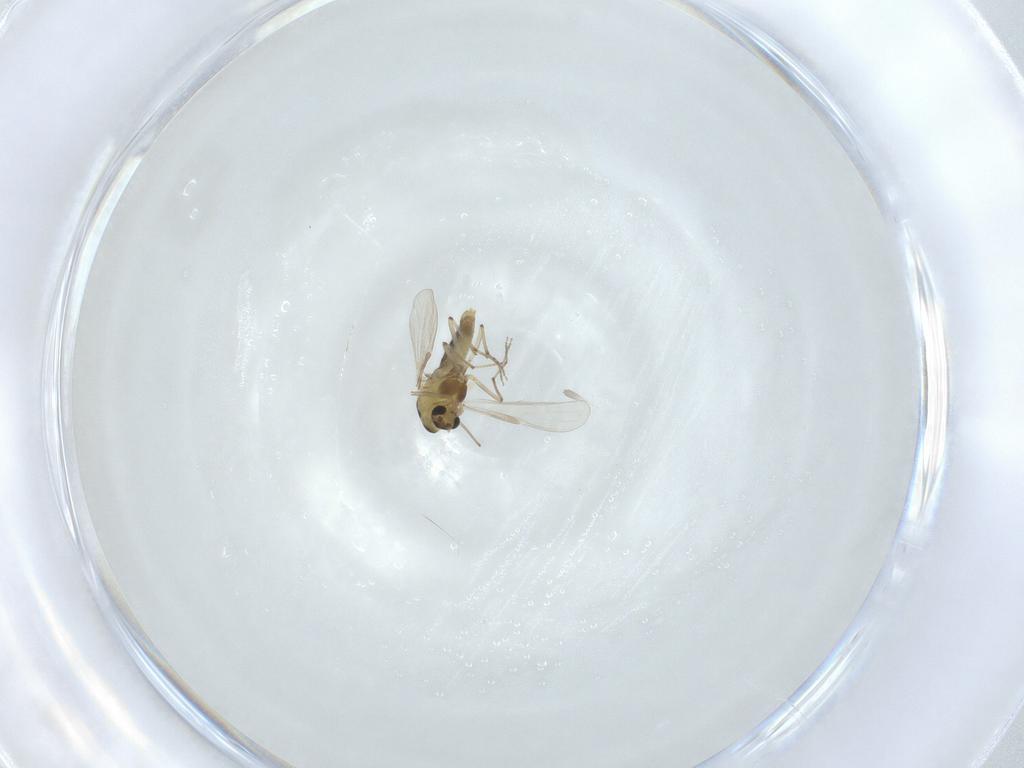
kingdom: Animalia
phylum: Arthropoda
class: Insecta
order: Diptera
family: Chironomidae
